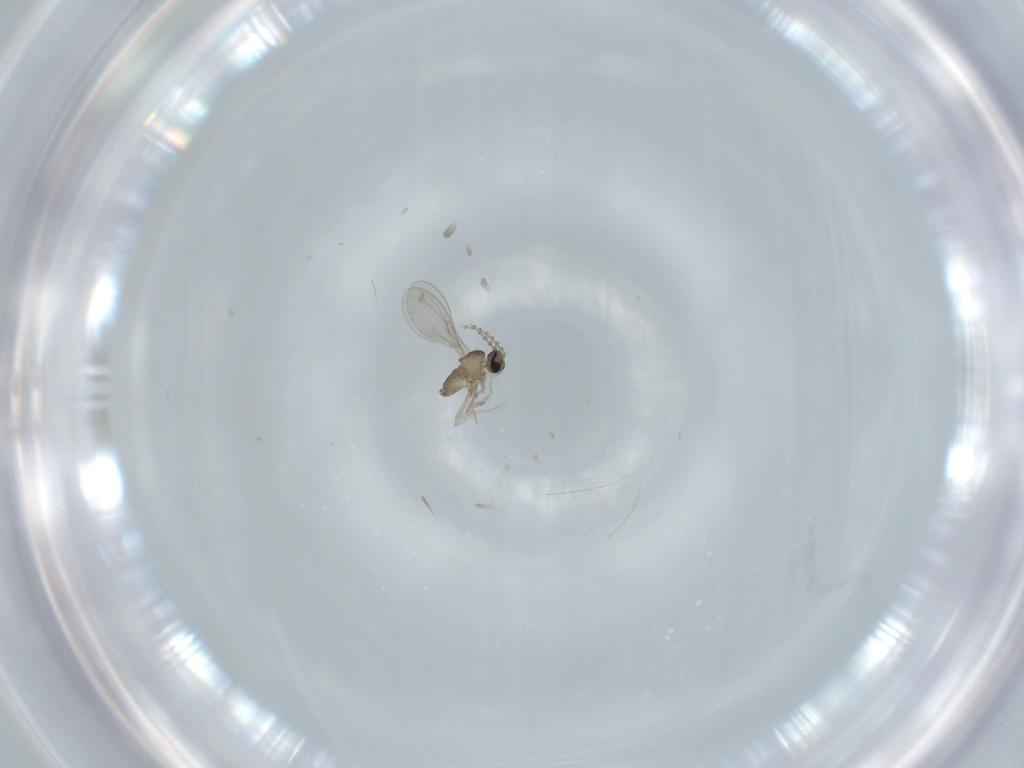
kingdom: Animalia
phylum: Arthropoda
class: Insecta
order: Diptera
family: Cecidomyiidae
